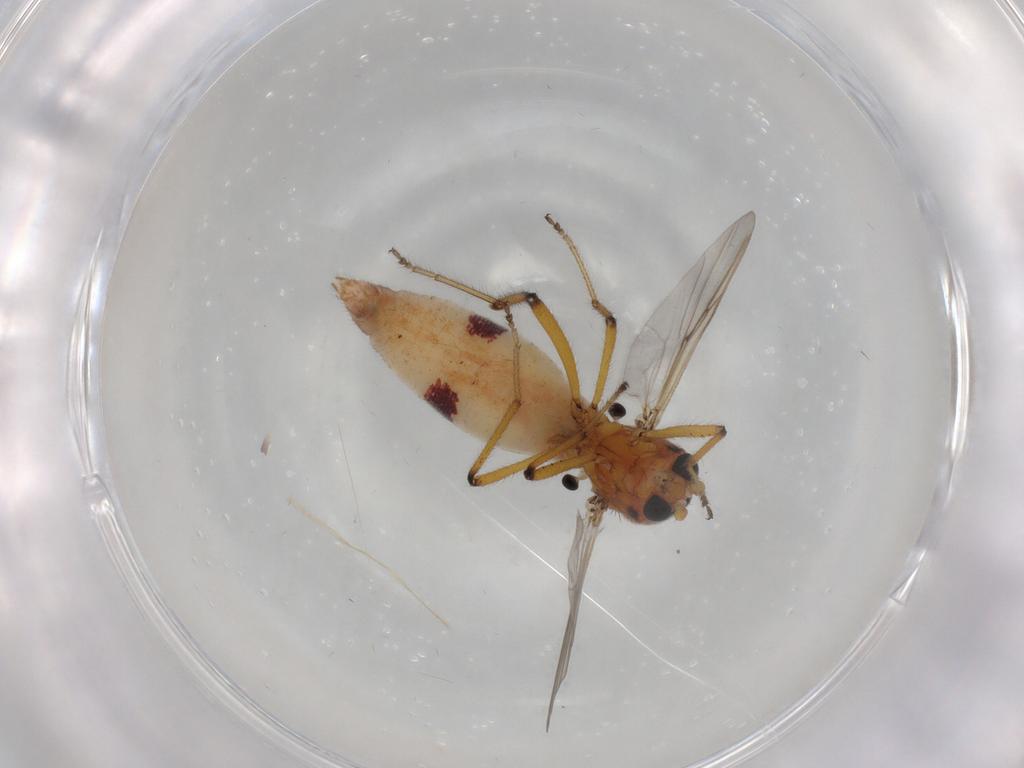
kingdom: Animalia
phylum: Arthropoda
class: Insecta
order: Diptera
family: Ceratopogonidae
